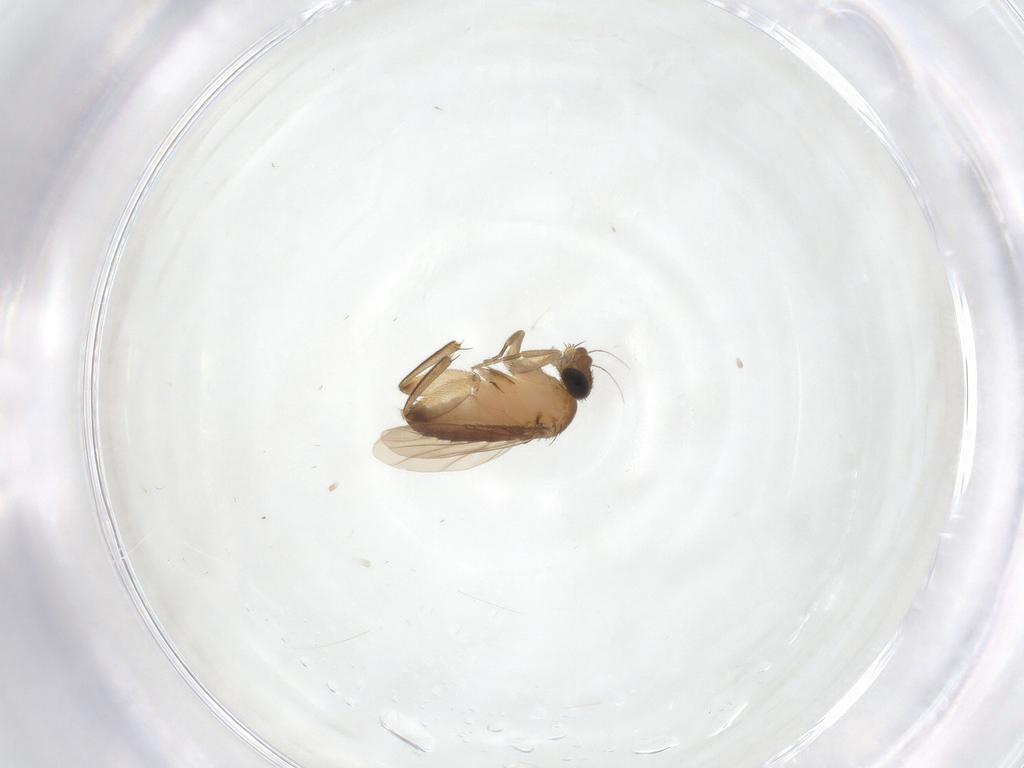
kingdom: Animalia
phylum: Arthropoda
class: Insecta
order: Diptera
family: Phoridae
